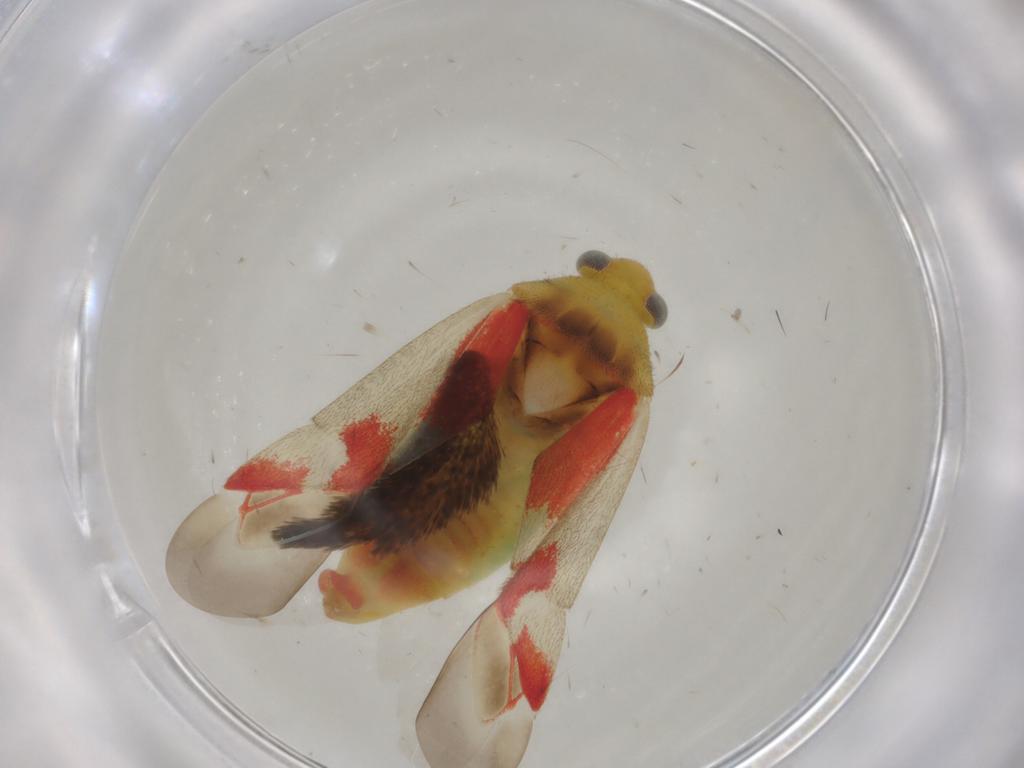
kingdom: Animalia
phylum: Arthropoda
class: Insecta
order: Hemiptera
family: Miridae
